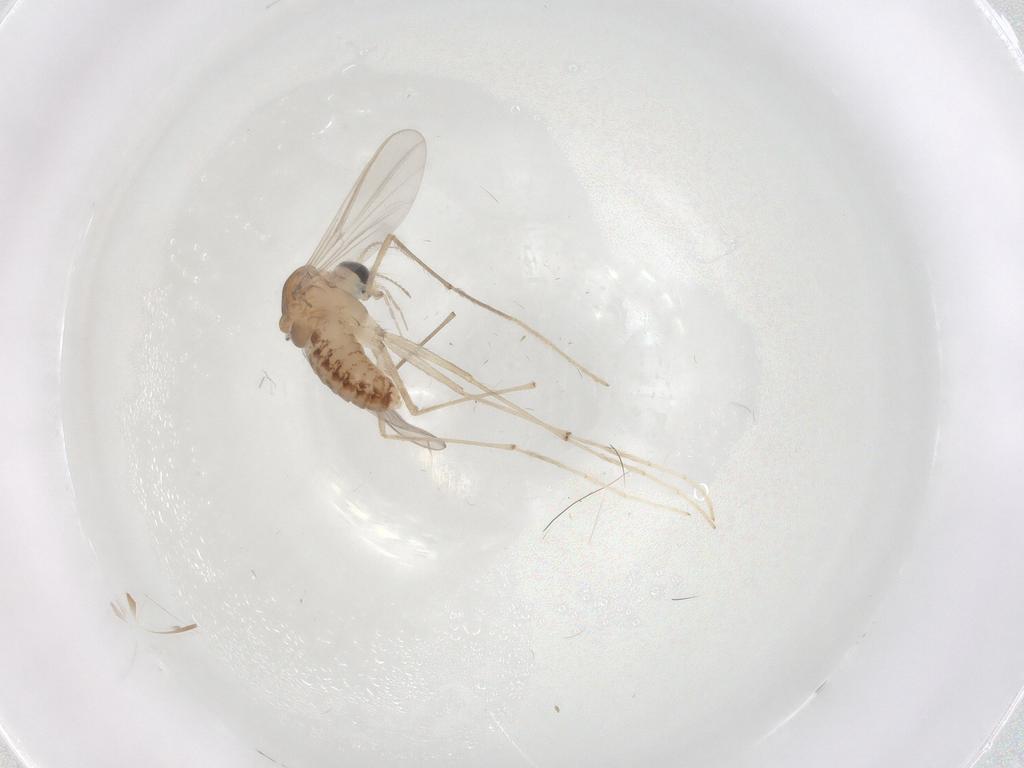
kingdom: Animalia
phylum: Arthropoda
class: Insecta
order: Diptera
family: Chironomidae
